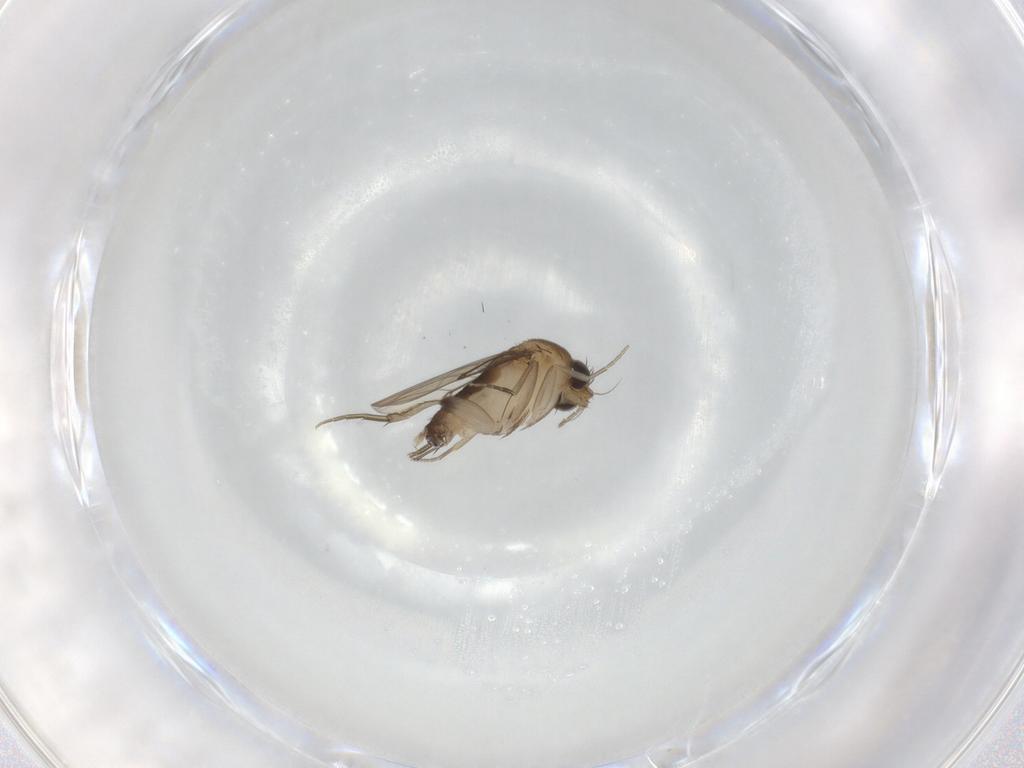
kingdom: Animalia
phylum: Arthropoda
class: Insecta
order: Diptera
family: Phoridae
